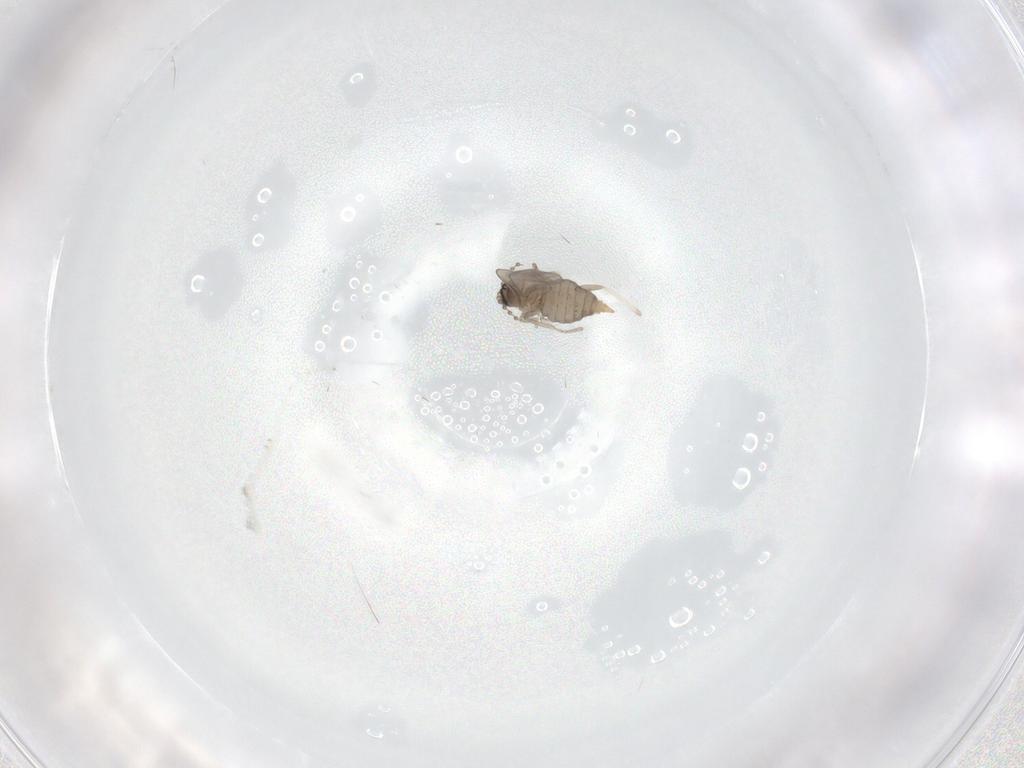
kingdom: Animalia
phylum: Arthropoda
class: Insecta
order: Diptera
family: Cecidomyiidae
